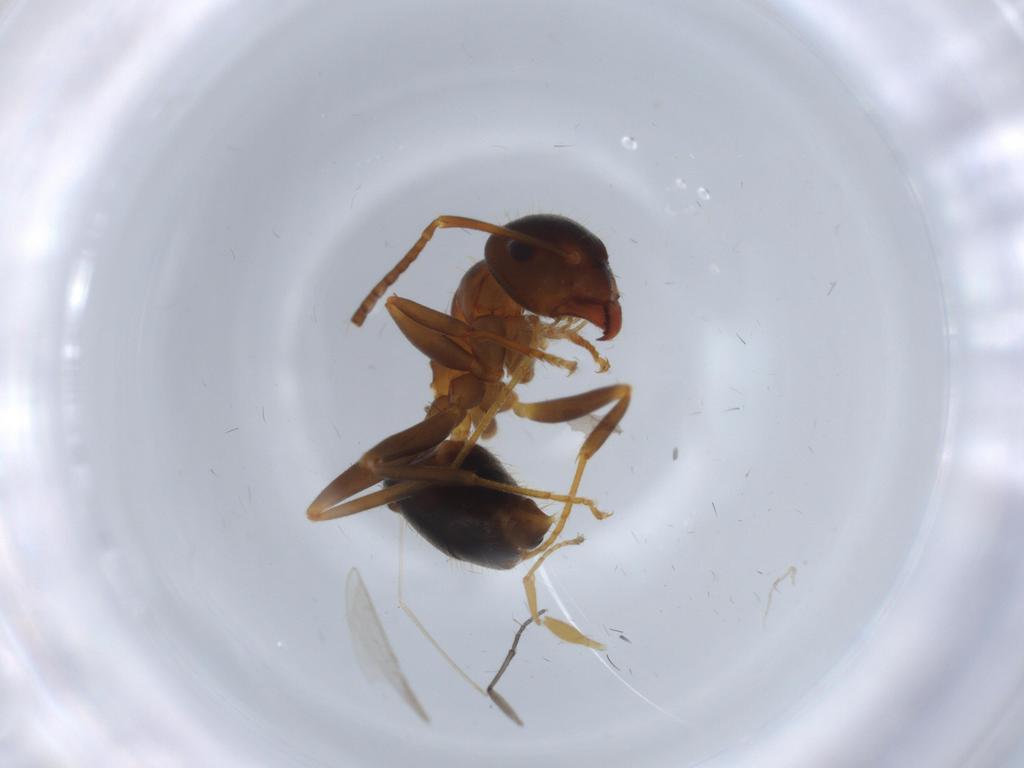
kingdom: Animalia
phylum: Arthropoda
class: Insecta
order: Hymenoptera
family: Formicidae
